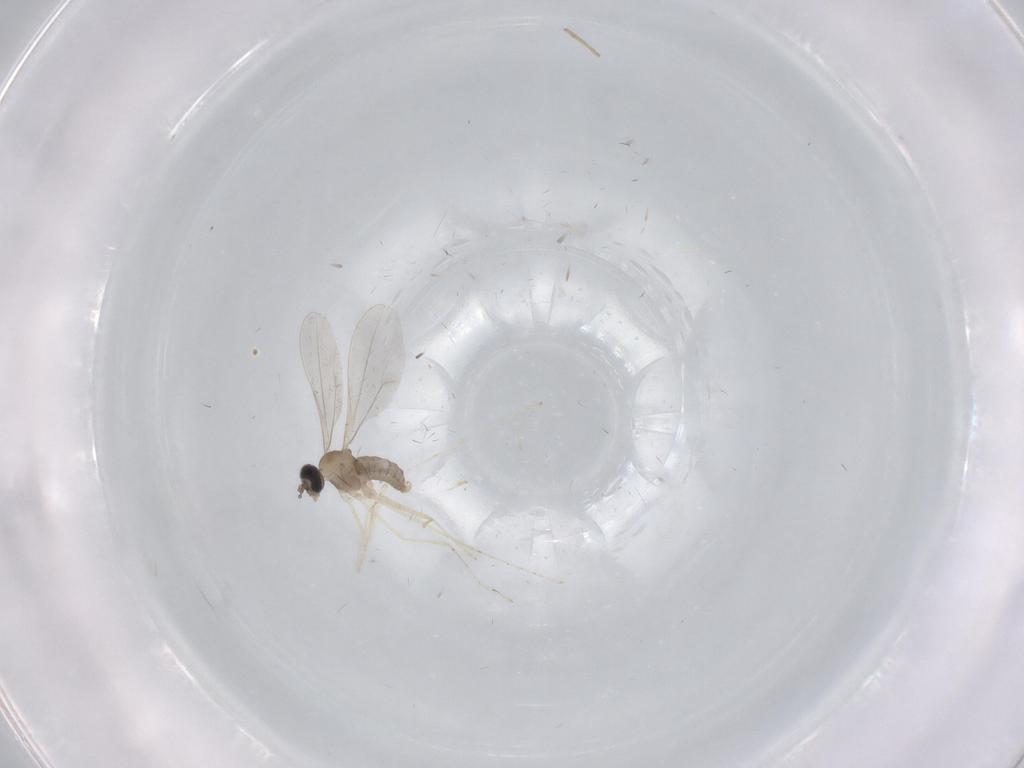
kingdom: Animalia
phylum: Arthropoda
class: Insecta
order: Diptera
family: Cecidomyiidae
